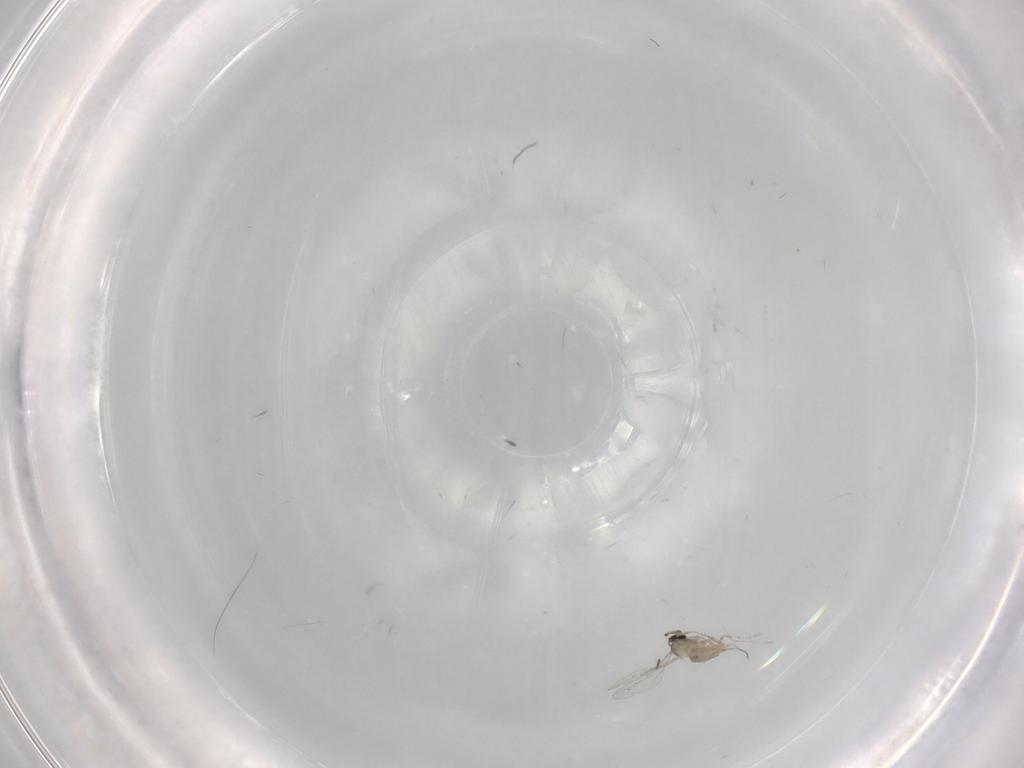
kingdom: Animalia
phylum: Arthropoda
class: Insecta
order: Diptera
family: Cecidomyiidae
